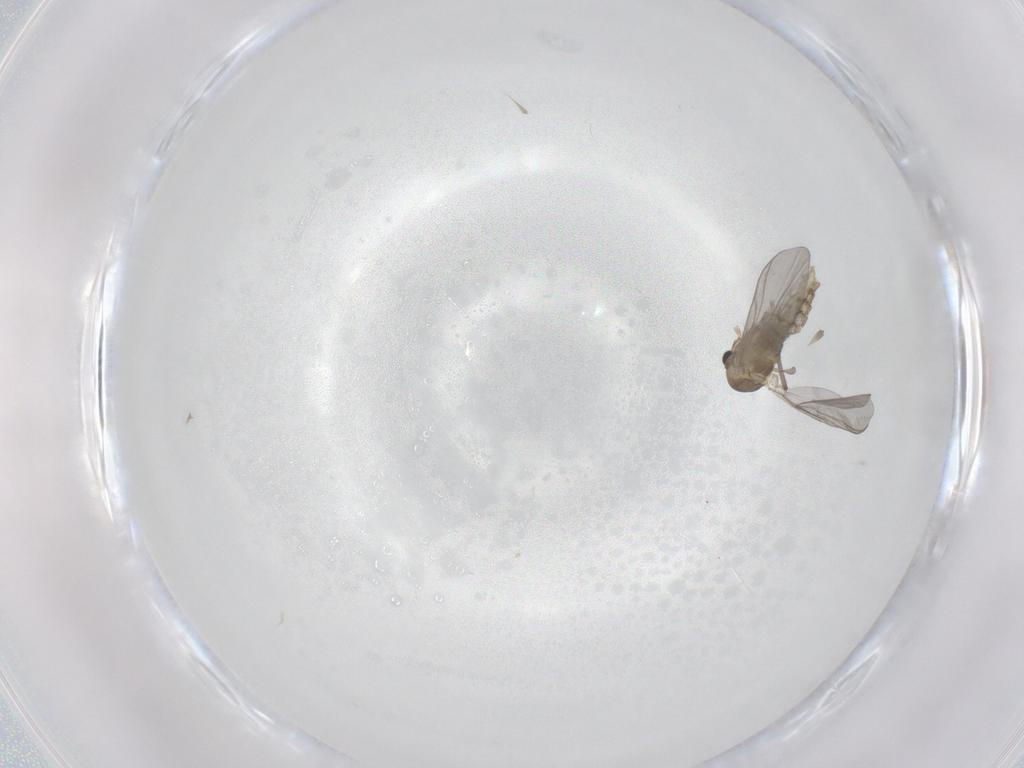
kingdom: Animalia
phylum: Arthropoda
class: Insecta
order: Diptera
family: Chironomidae
